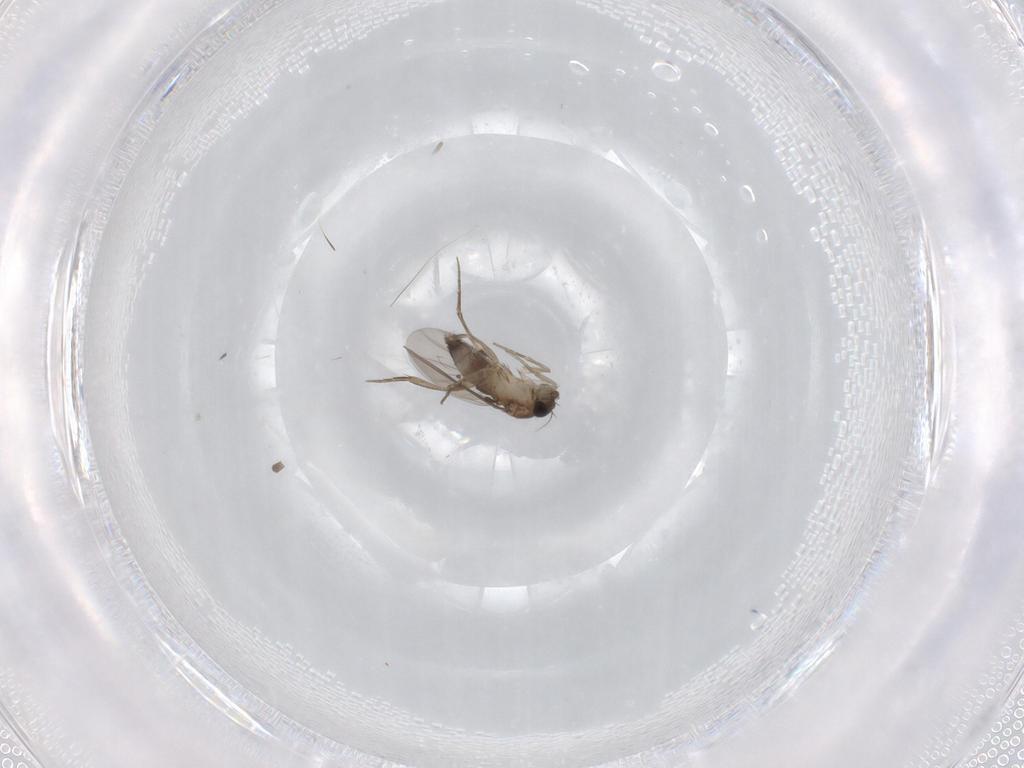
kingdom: Animalia
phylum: Arthropoda
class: Insecta
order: Diptera
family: Phoridae
